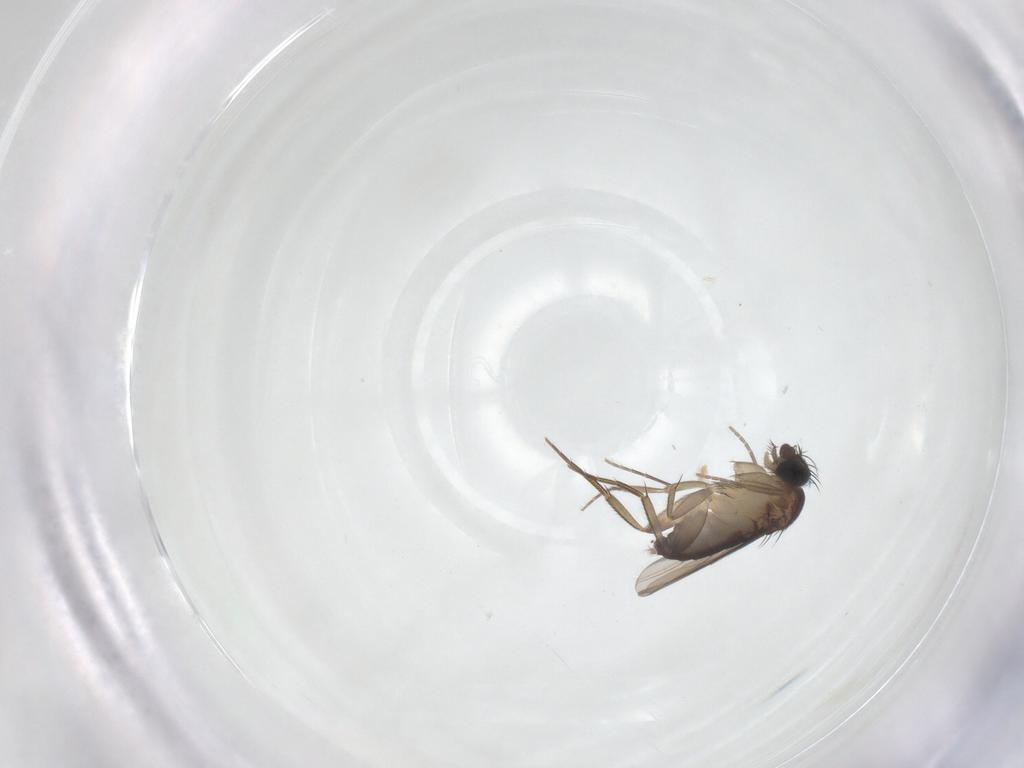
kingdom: Animalia
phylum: Arthropoda
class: Insecta
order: Diptera
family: Phoridae
